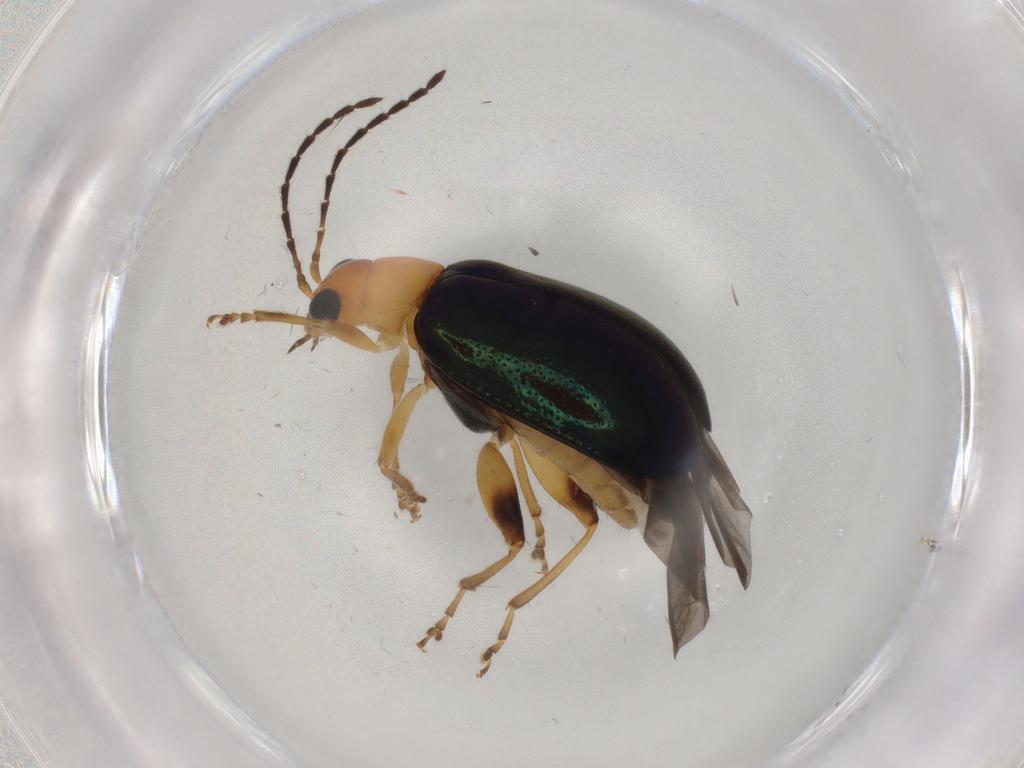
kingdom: Animalia
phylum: Arthropoda
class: Insecta
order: Coleoptera
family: Chrysomelidae
